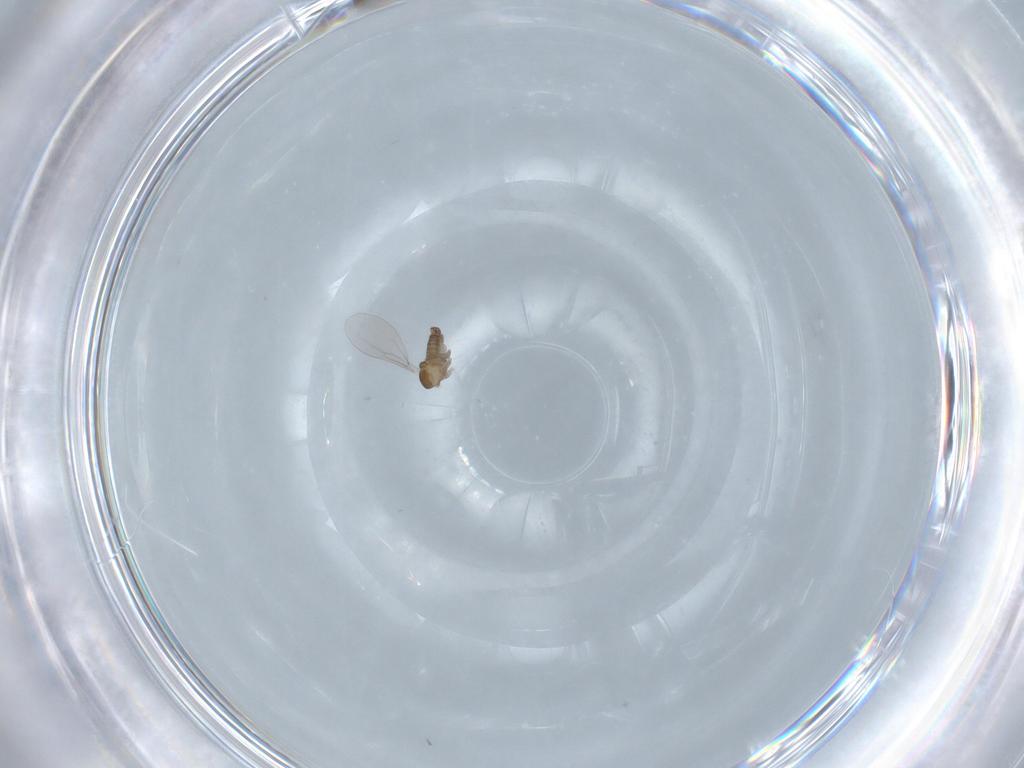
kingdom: Animalia
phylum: Arthropoda
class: Insecta
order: Diptera
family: Cecidomyiidae
